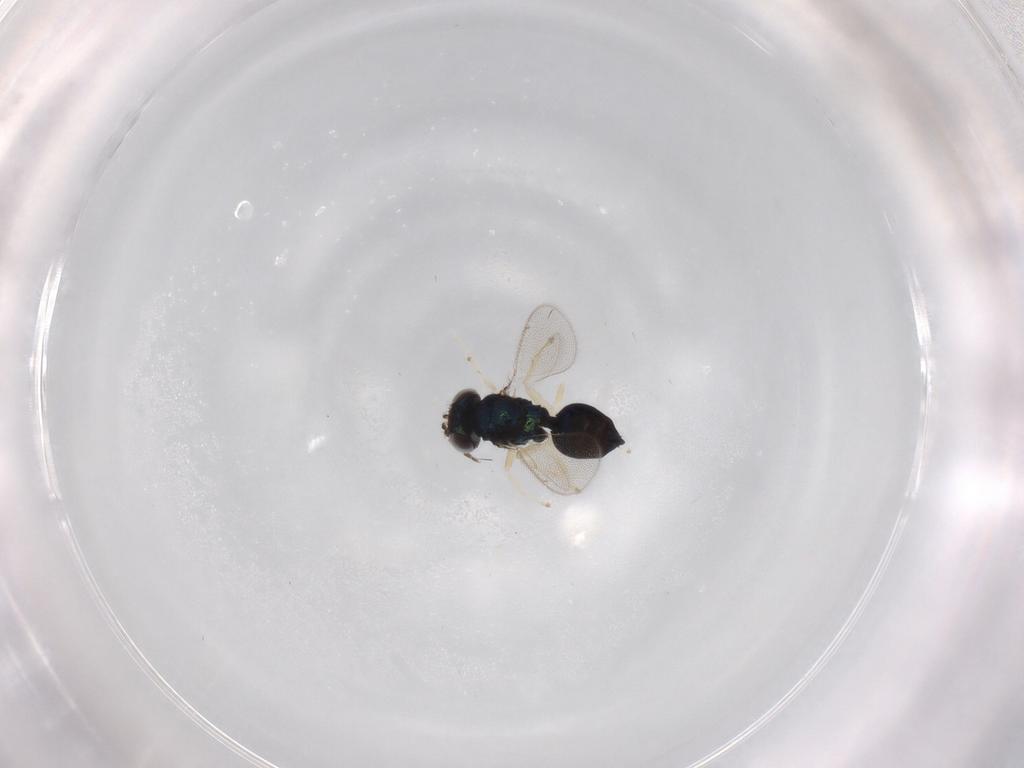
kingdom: Animalia
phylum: Arthropoda
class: Insecta
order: Hymenoptera
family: Eulophidae
